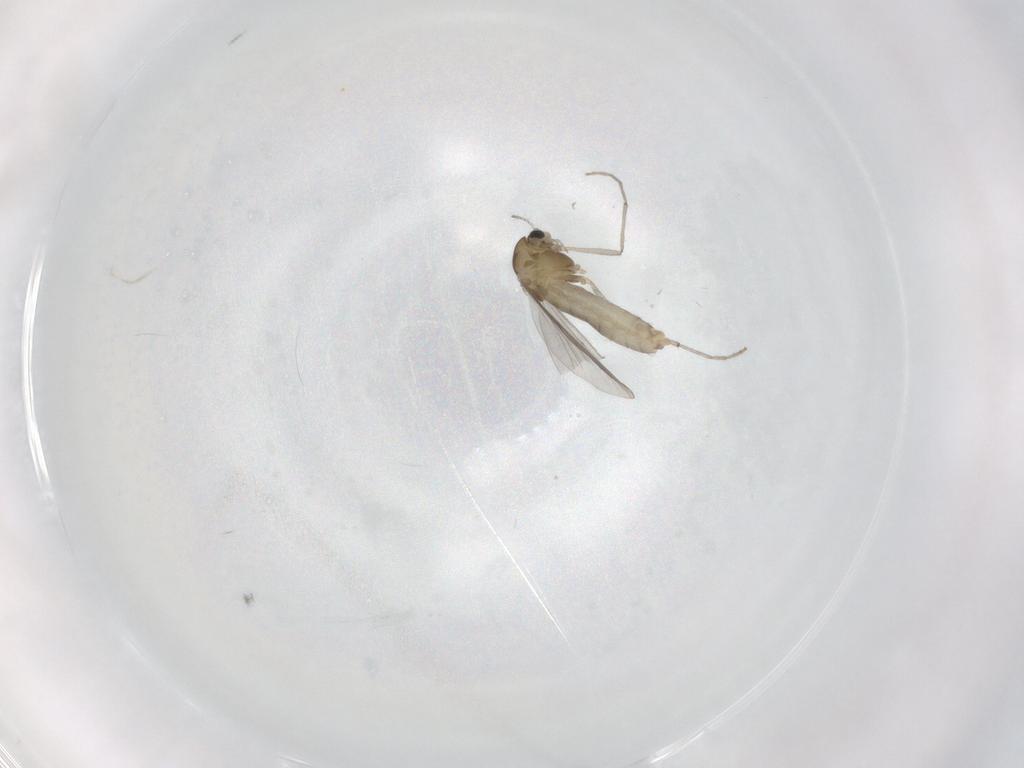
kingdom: Animalia
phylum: Arthropoda
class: Insecta
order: Diptera
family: Chironomidae
